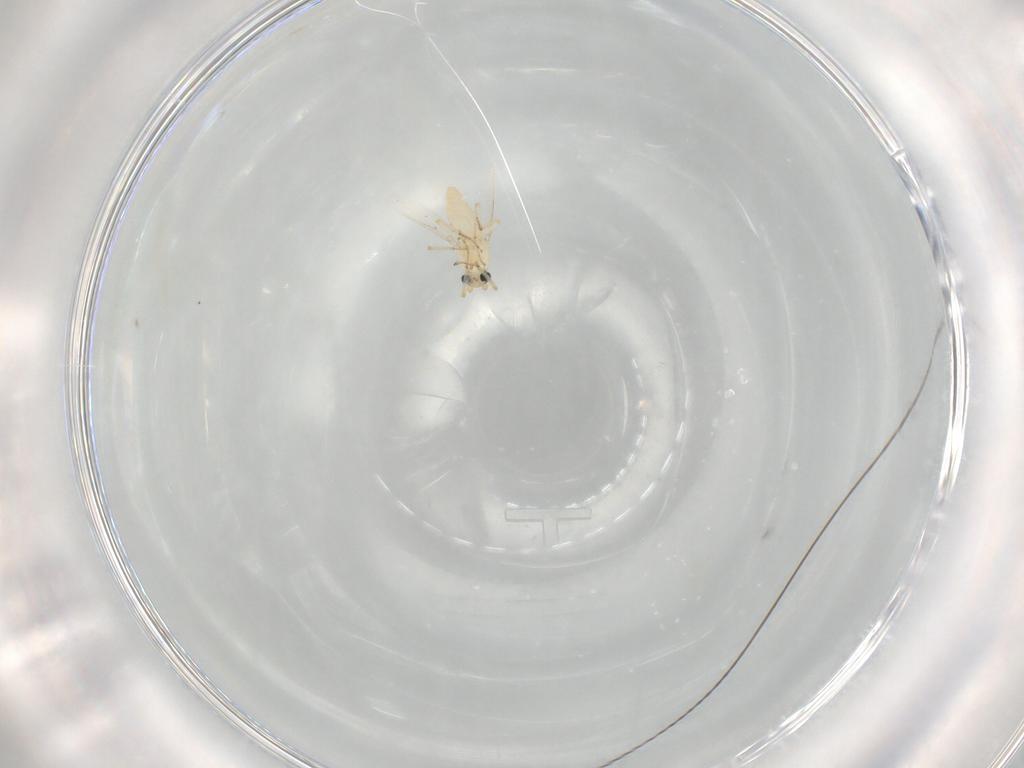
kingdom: Animalia
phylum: Arthropoda
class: Insecta
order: Diptera
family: Ceratopogonidae
